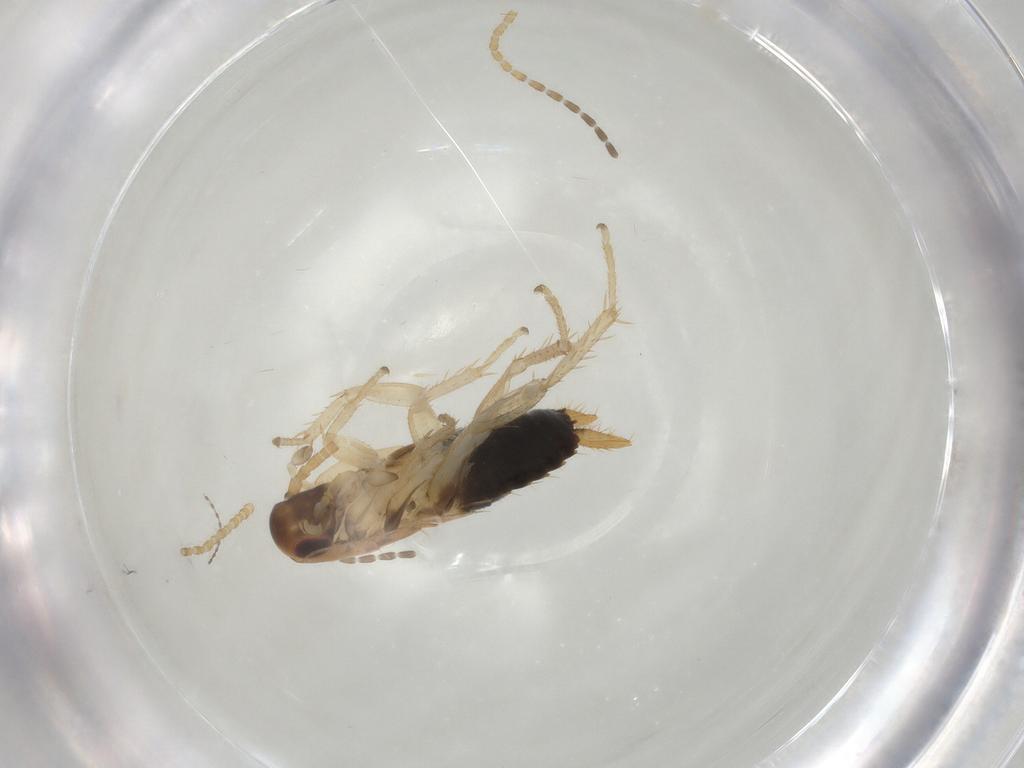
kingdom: Animalia
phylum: Arthropoda
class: Insecta
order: Blattodea
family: Ectobiidae
